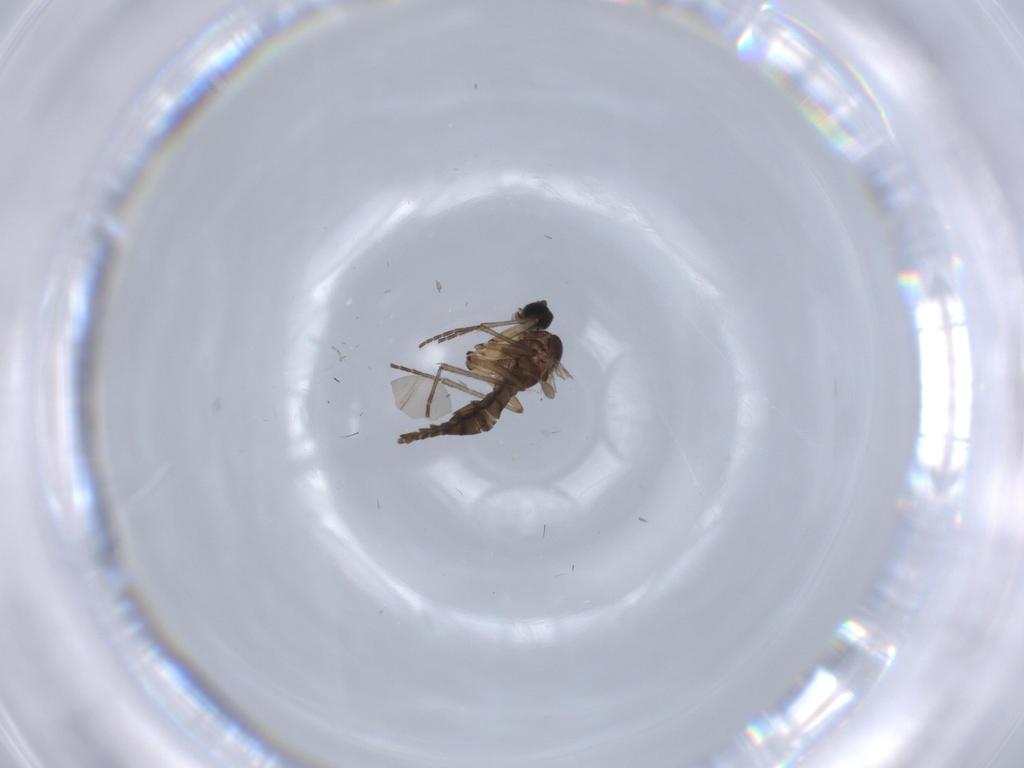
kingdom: Animalia
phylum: Arthropoda
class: Insecta
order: Diptera
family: Sciaridae
